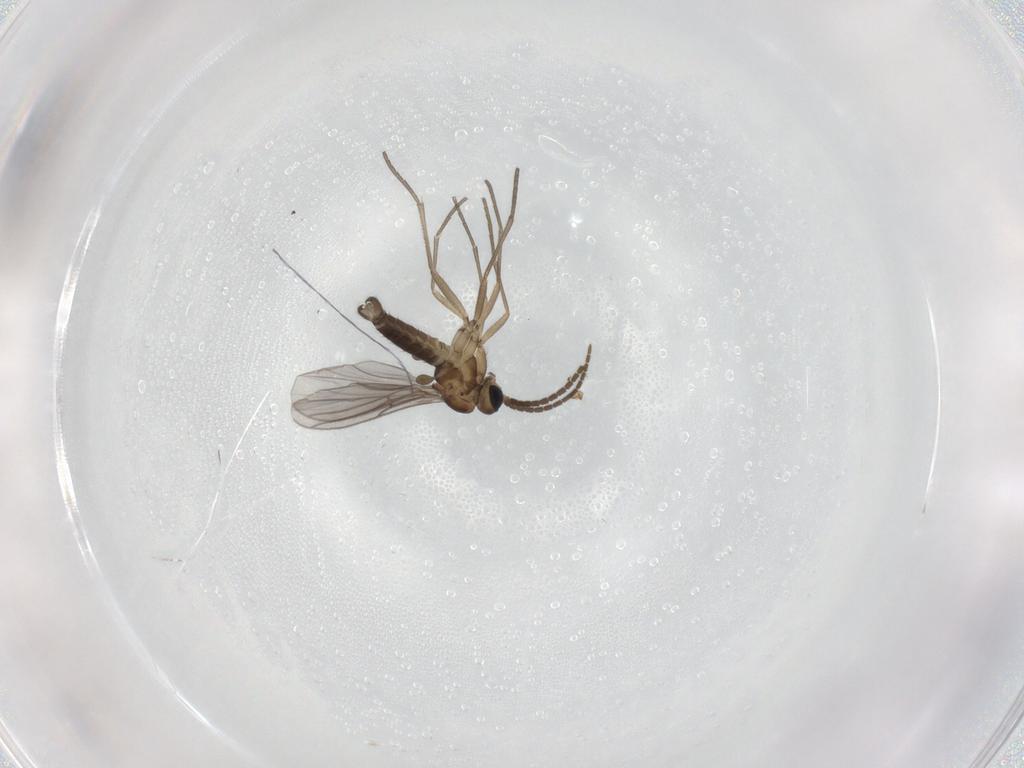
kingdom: Animalia
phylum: Arthropoda
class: Insecta
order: Diptera
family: Sciaridae
